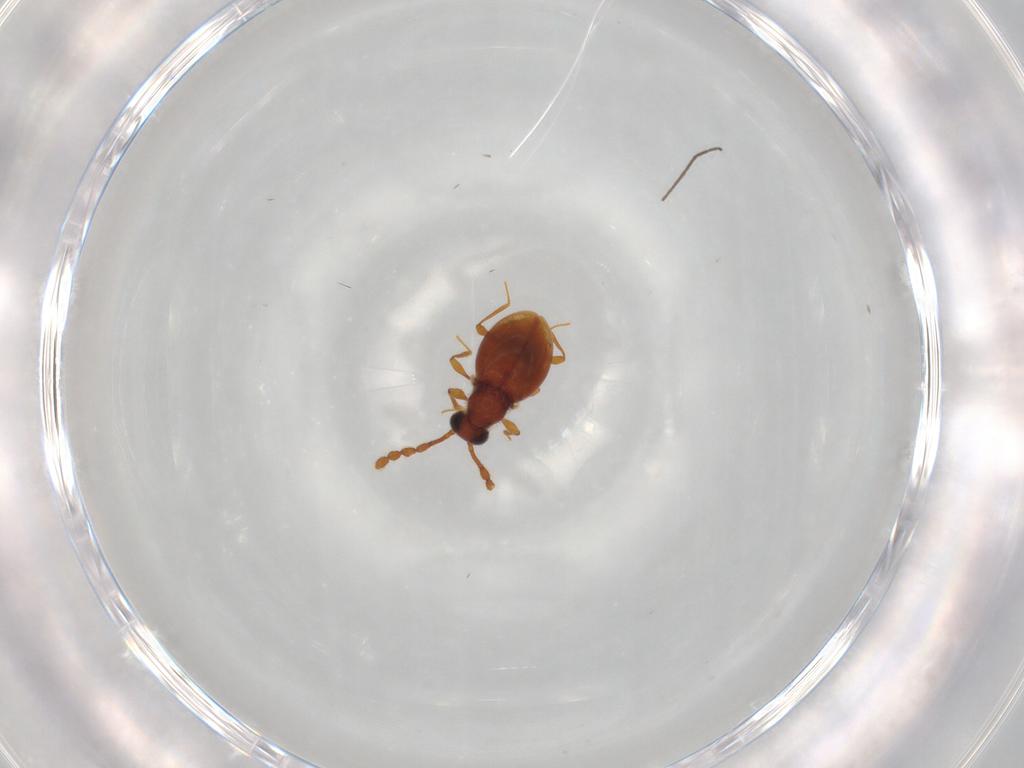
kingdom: Animalia
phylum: Arthropoda
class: Insecta
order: Coleoptera
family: Staphylinidae
